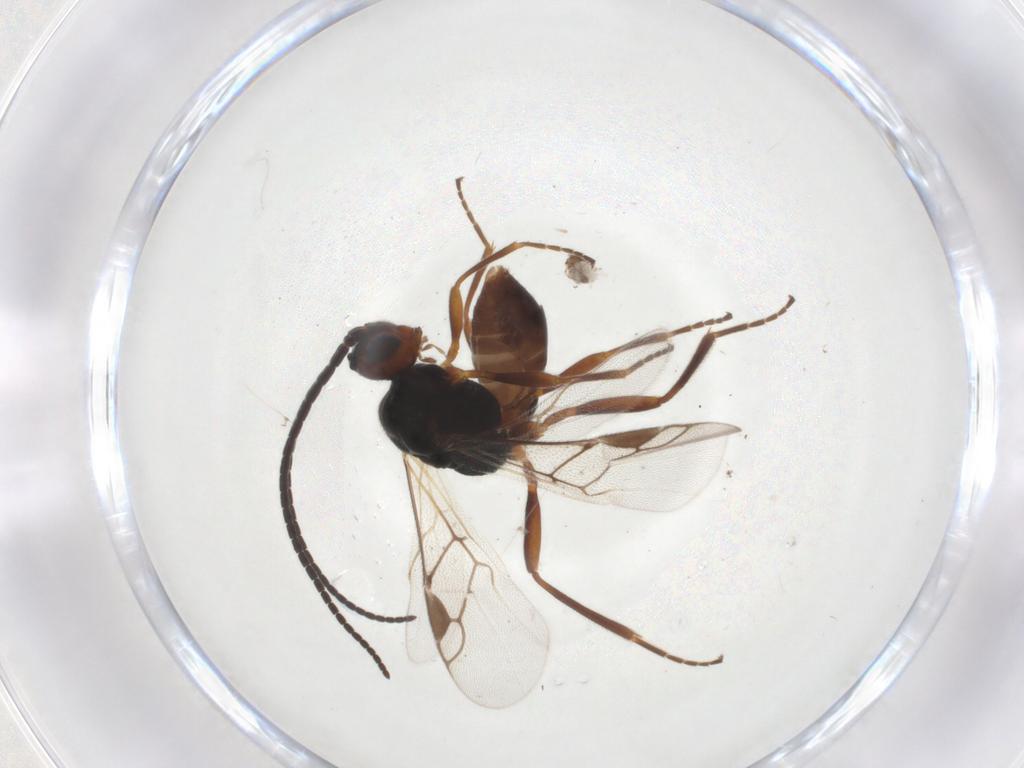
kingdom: Animalia
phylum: Arthropoda
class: Insecta
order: Hymenoptera
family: Braconidae
